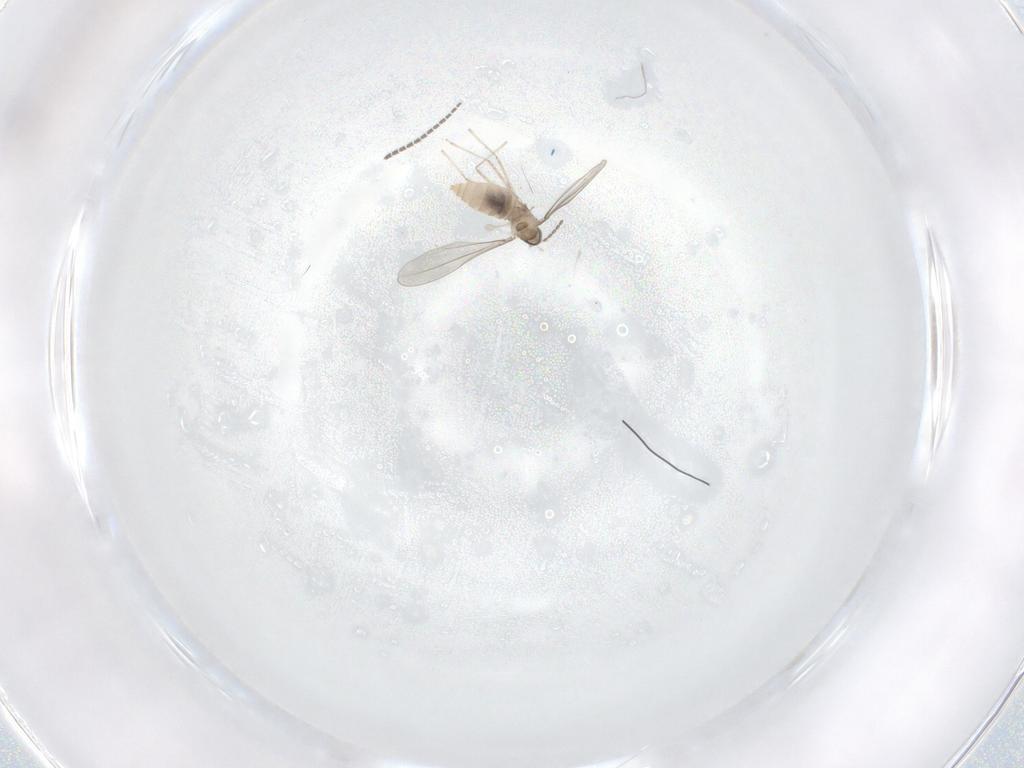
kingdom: Animalia
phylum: Arthropoda
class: Insecta
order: Diptera
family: Sciaridae
